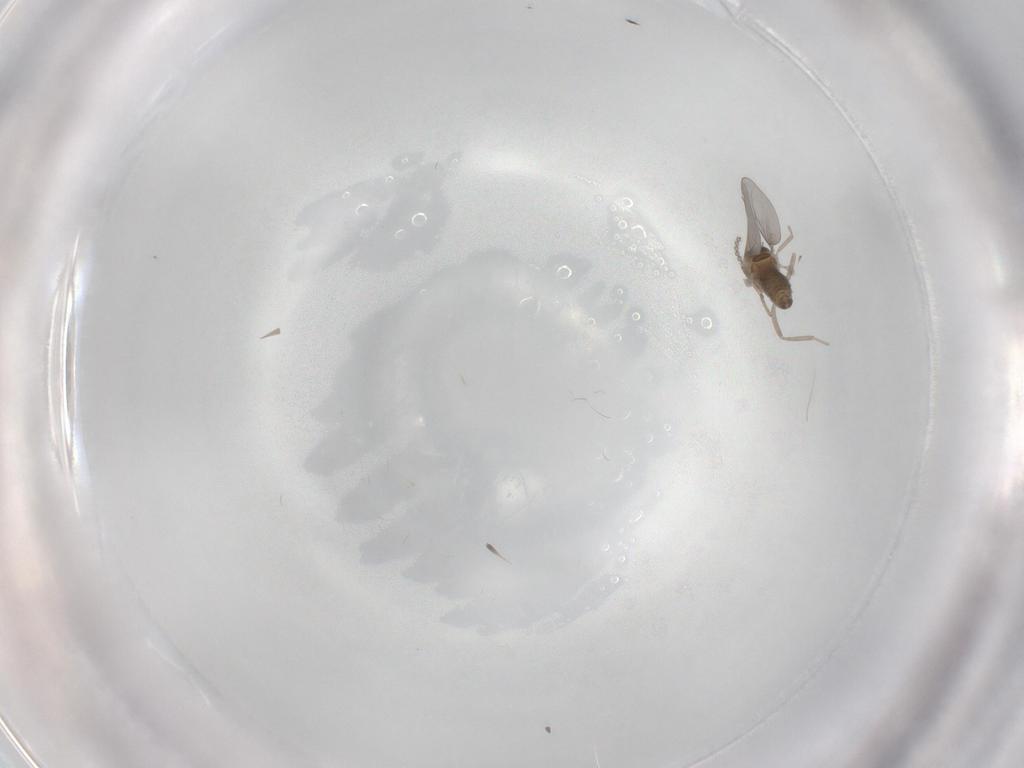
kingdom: Animalia
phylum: Arthropoda
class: Insecta
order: Diptera
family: Cecidomyiidae
